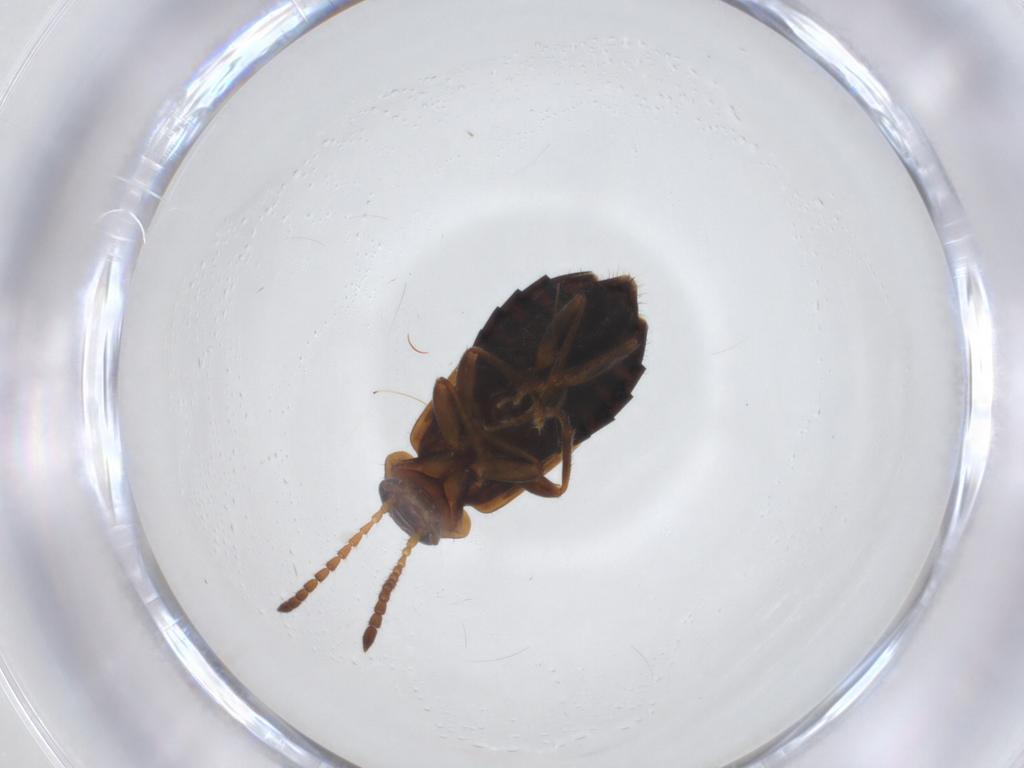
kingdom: Animalia
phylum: Arthropoda
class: Insecta
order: Coleoptera
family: Staphylinidae
